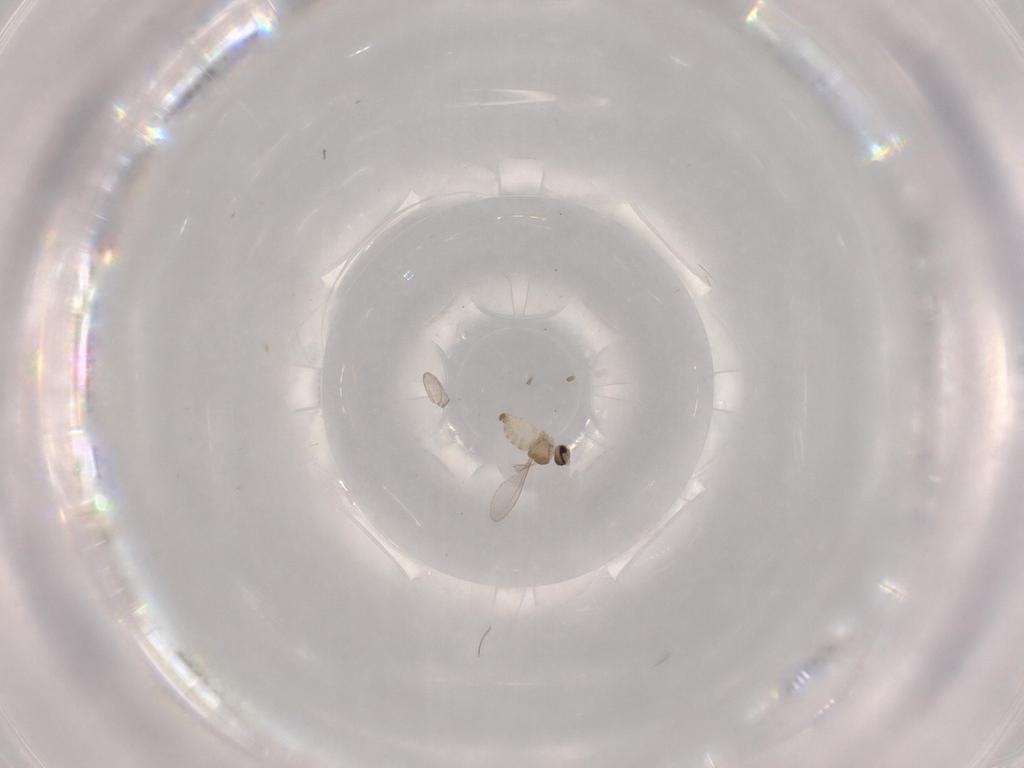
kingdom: Animalia
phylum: Arthropoda
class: Insecta
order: Diptera
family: Cecidomyiidae
